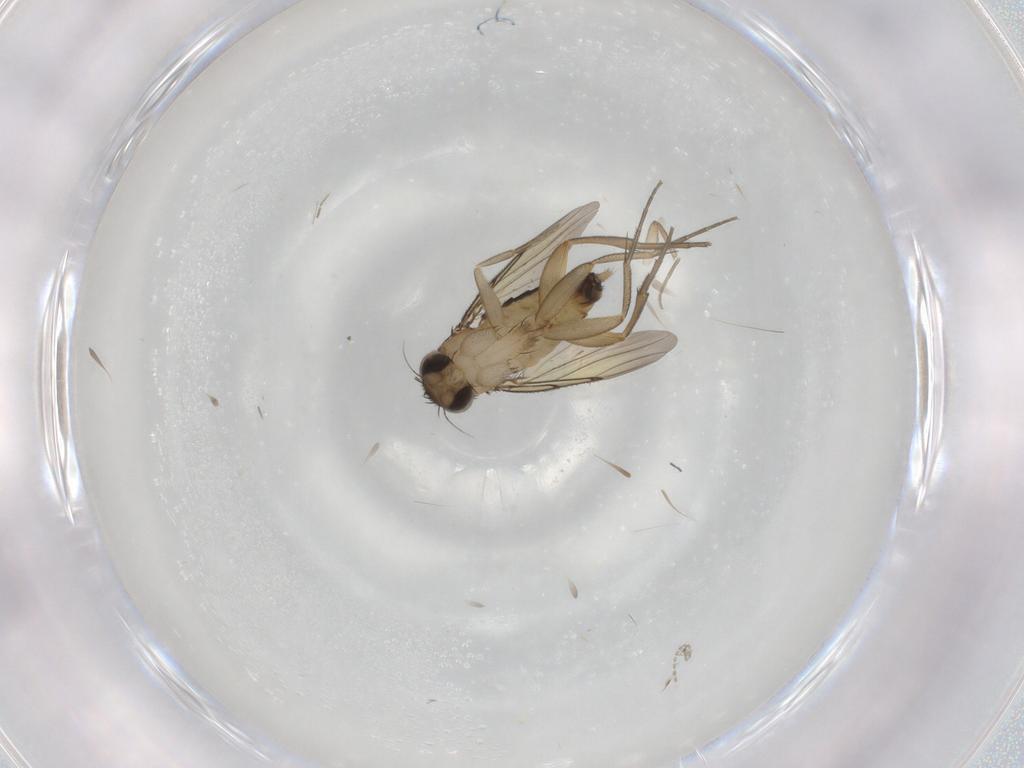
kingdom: Animalia
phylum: Arthropoda
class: Insecta
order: Diptera
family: Phoridae
